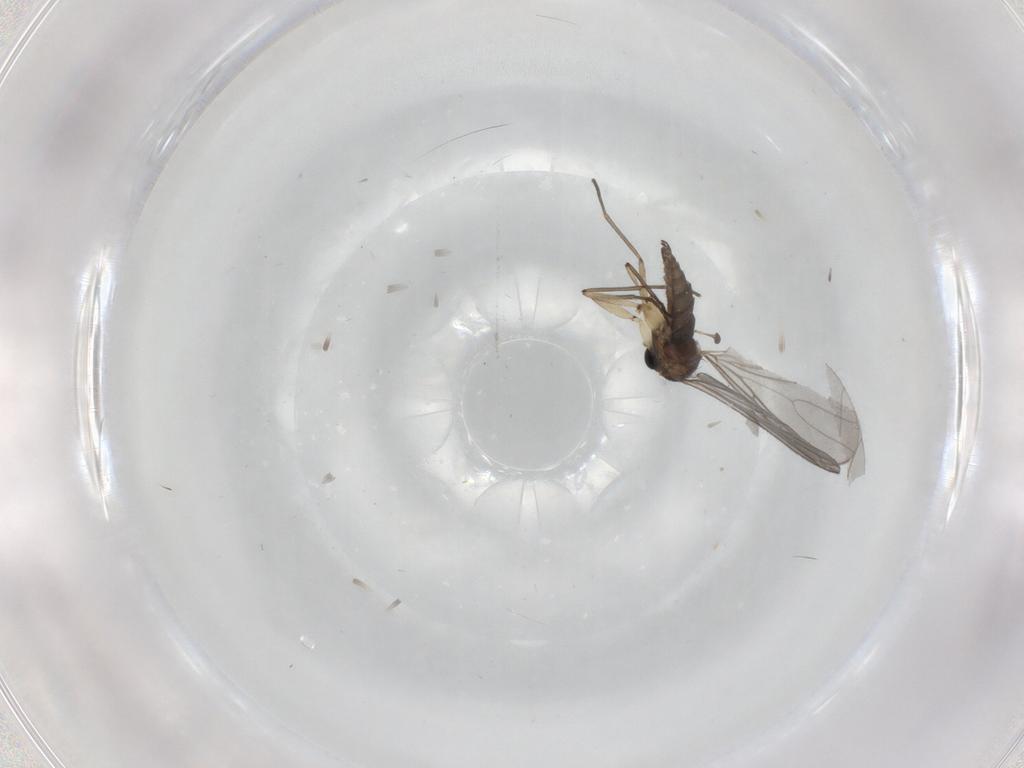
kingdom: Animalia
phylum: Arthropoda
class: Insecta
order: Diptera
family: Sciaridae
